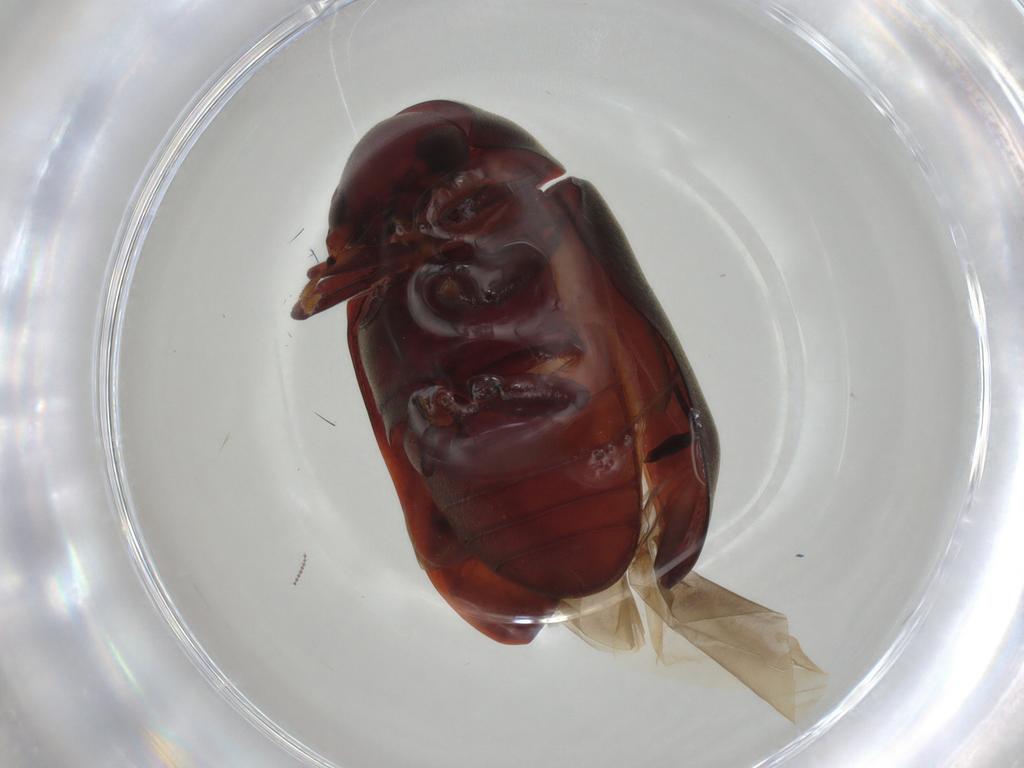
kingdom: Animalia
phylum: Arthropoda
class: Insecta
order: Coleoptera
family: Ptinidae
